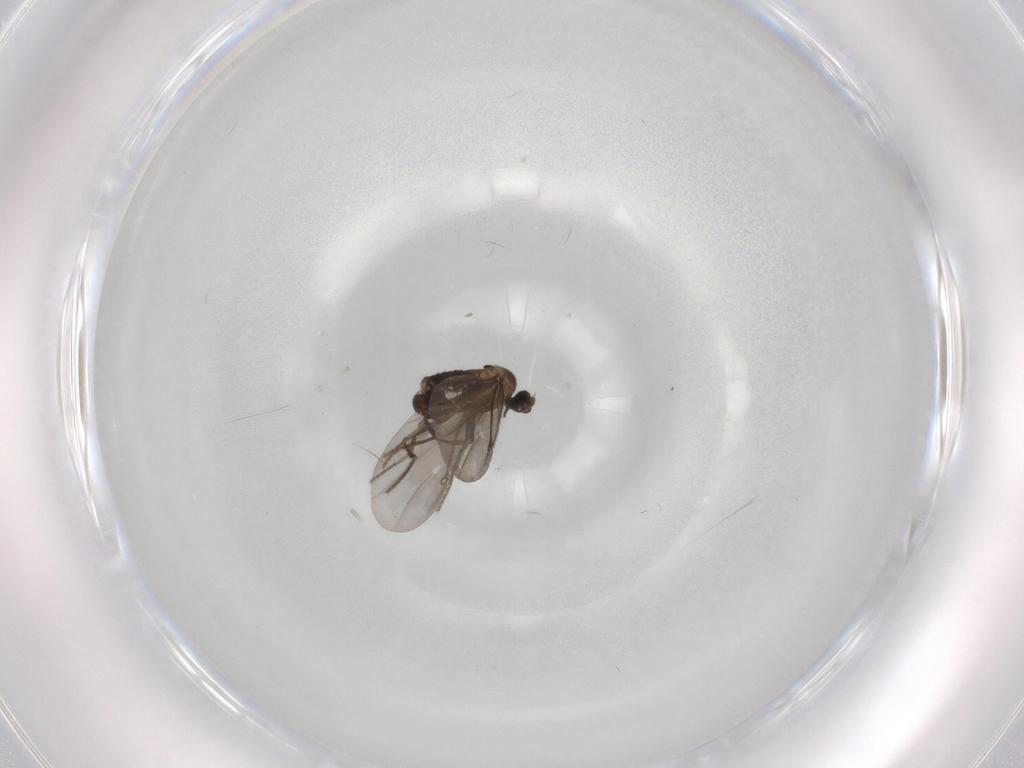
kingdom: Animalia
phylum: Arthropoda
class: Insecta
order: Diptera
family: Phoridae
